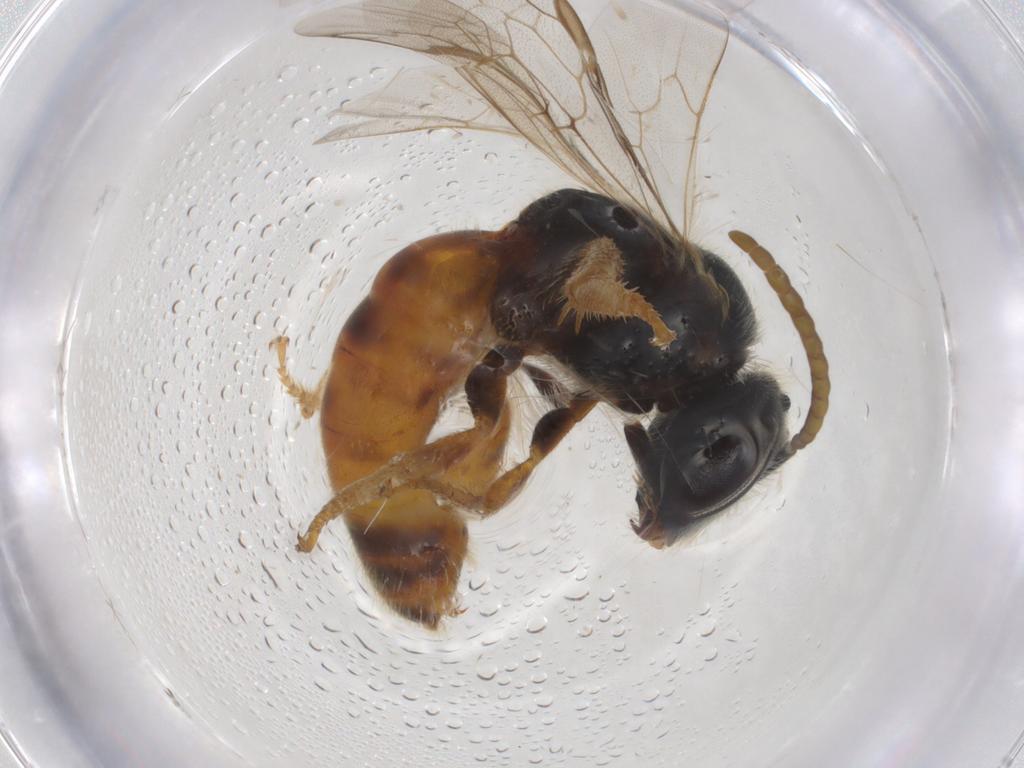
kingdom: Animalia
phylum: Arthropoda
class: Insecta
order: Hymenoptera
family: Halictidae
